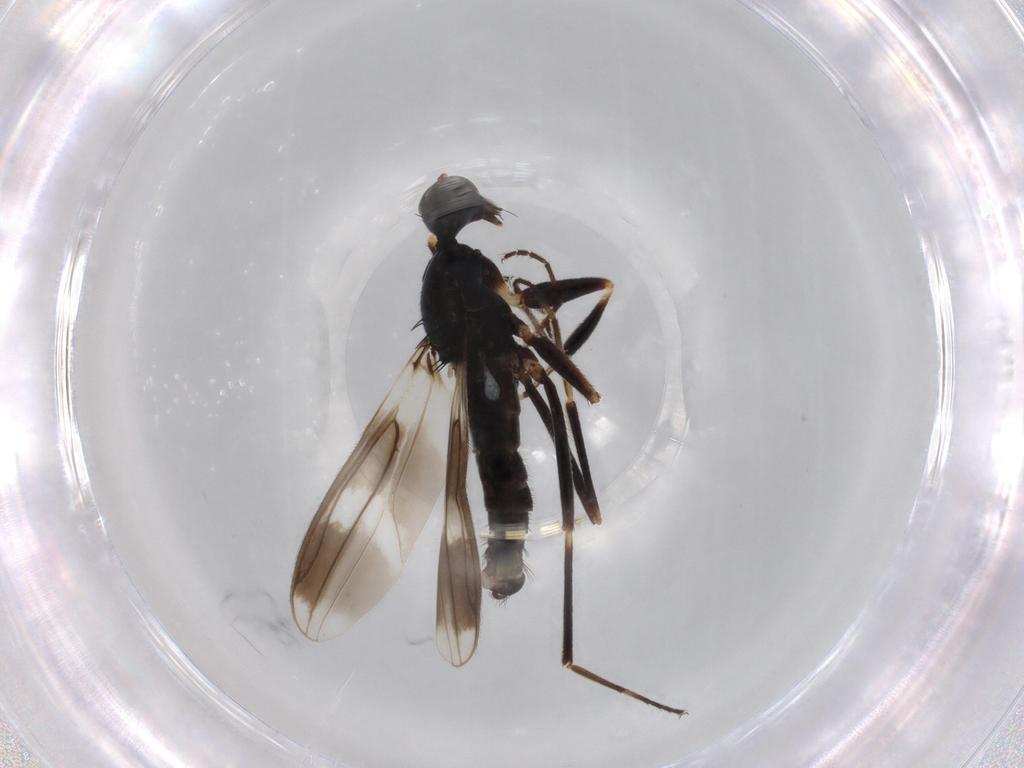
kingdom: Animalia
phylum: Arthropoda
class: Insecta
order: Diptera
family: Hybotidae
